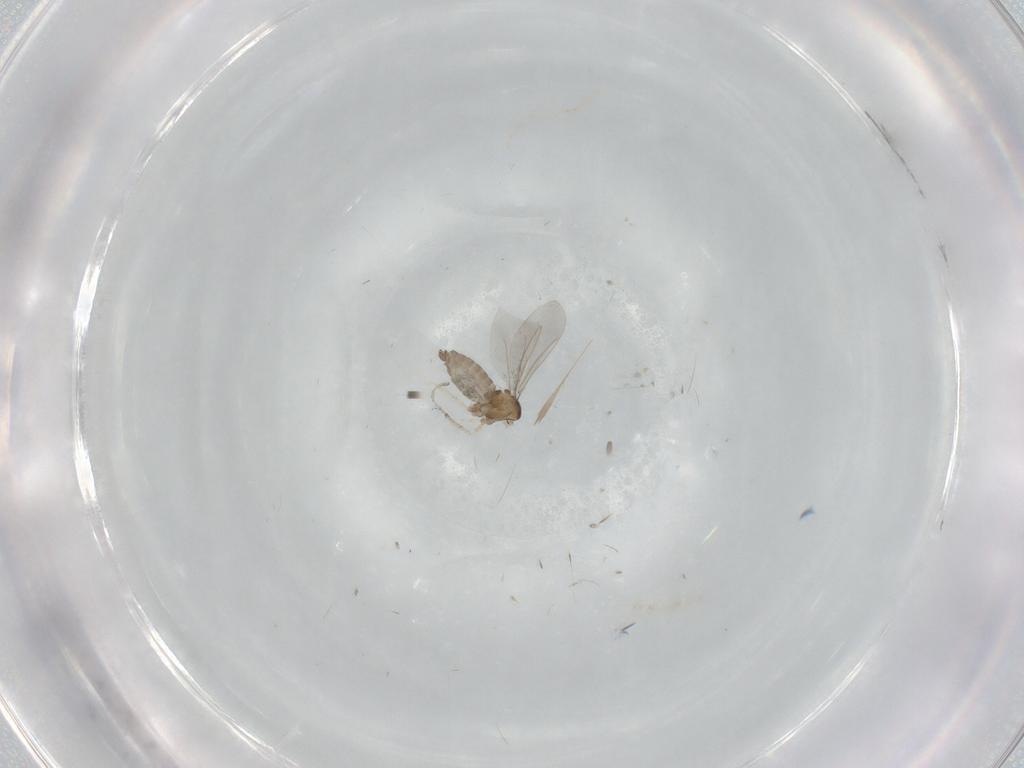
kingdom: Animalia
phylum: Arthropoda
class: Insecta
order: Diptera
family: Cecidomyiidae
